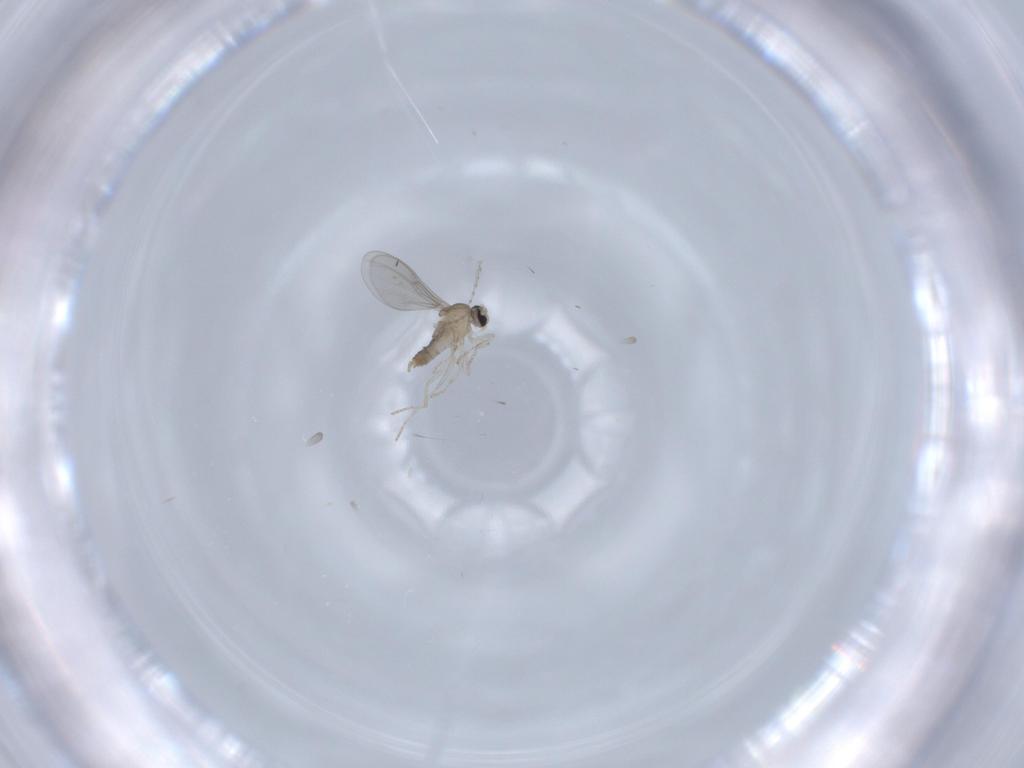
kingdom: Animalia
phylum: Arthropoda
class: Insecta
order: Diptera
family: Cecidomyiidae
